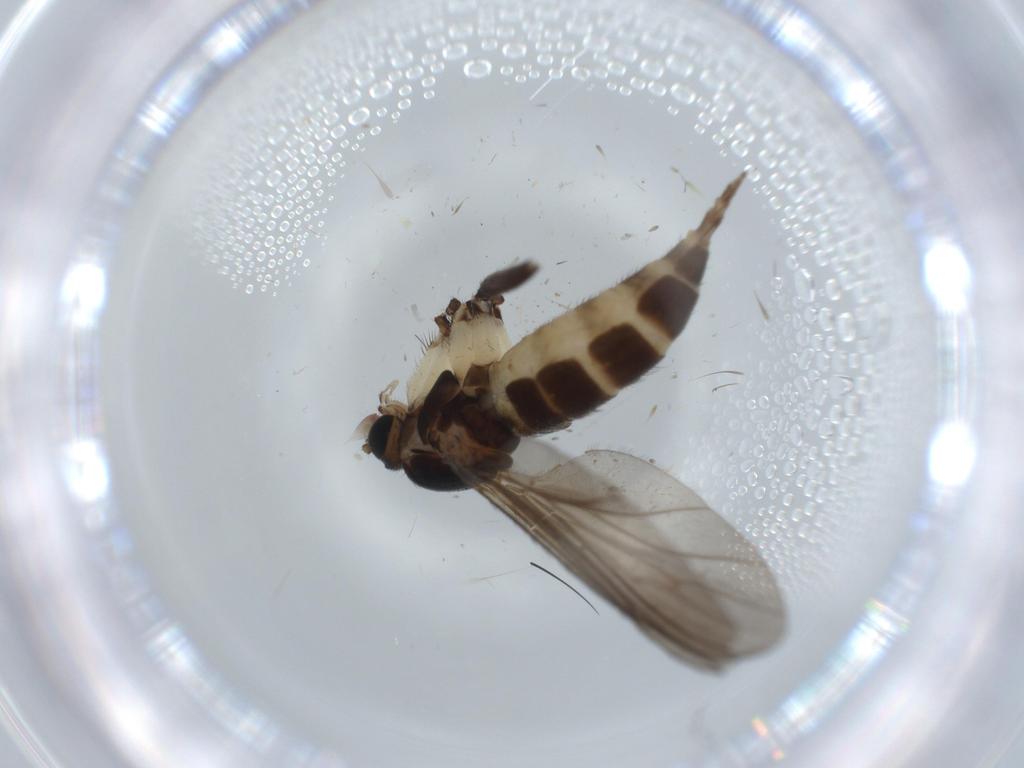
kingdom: Animalia
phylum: Arthropoda
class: Insecta
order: Diptera
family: Sciaridae
